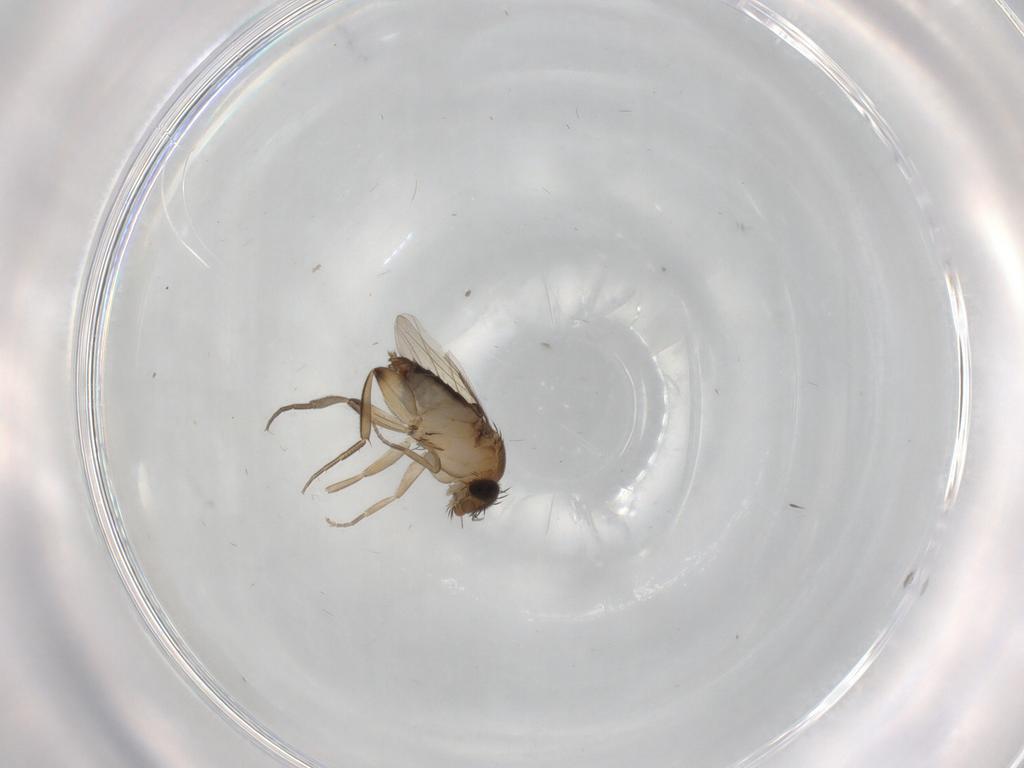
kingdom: Animalia
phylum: Arthropoda
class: Insecta
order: Diptera
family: Phoridae
